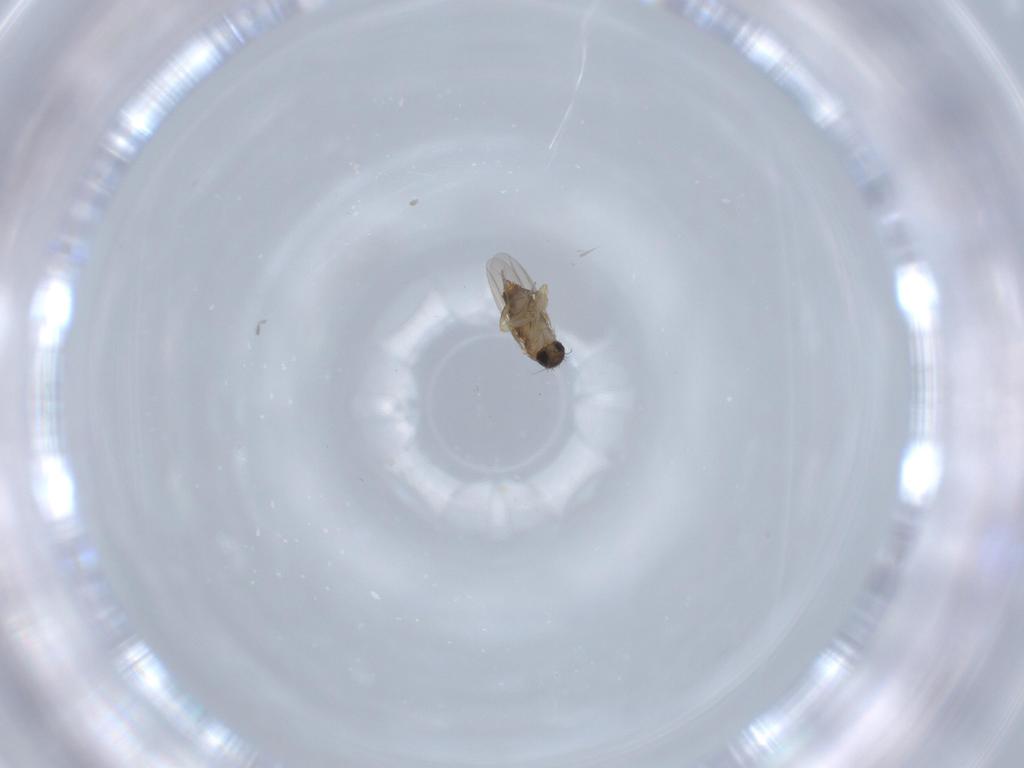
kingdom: Animalia
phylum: Arthropoda
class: Insecta
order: Diptera
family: Phoridae
